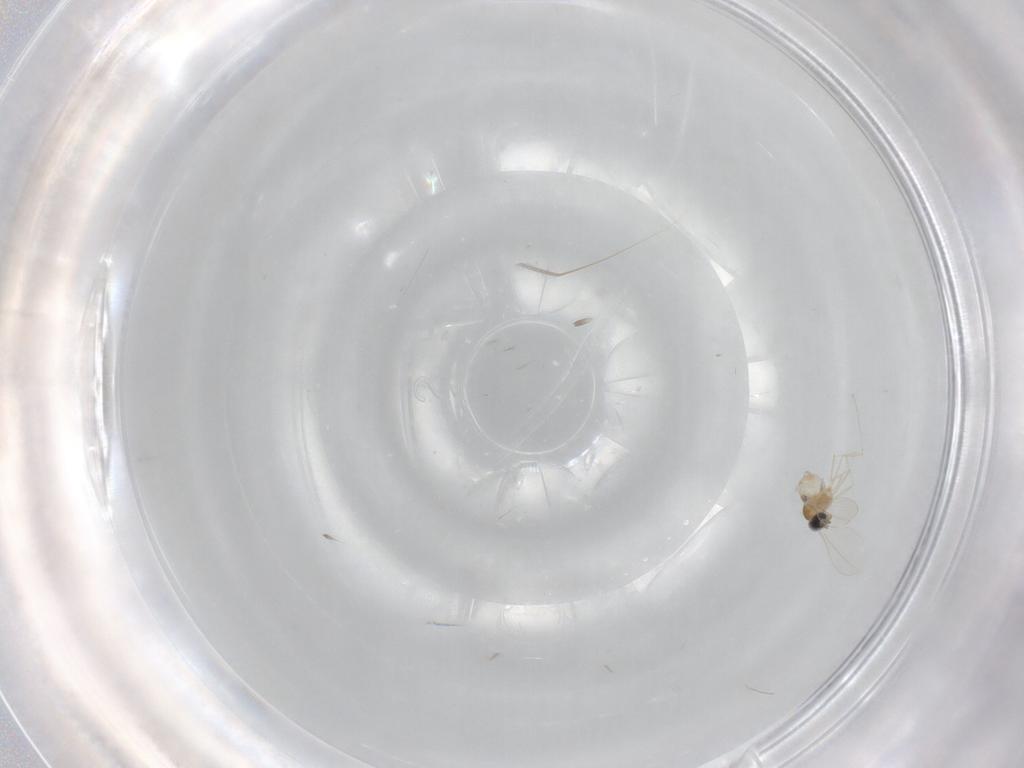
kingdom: Animalia
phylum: Arthropoda
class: Insecta
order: Diptera
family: Cecidomyiidae
